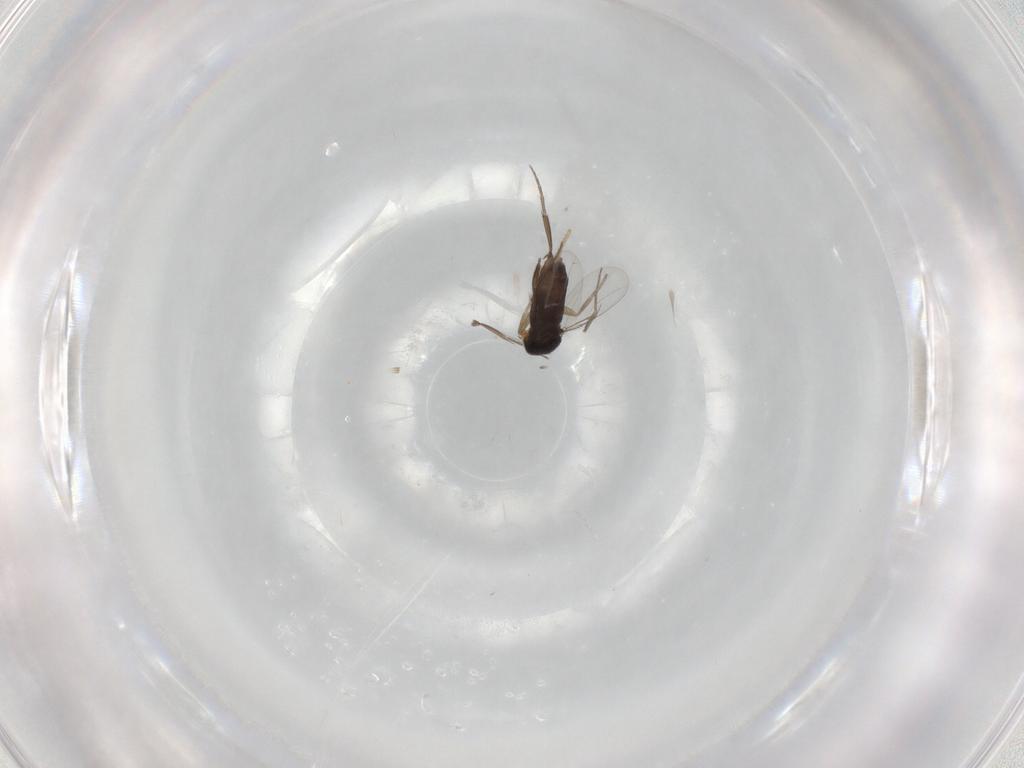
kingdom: Animalia
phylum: Arthropoda
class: Insecta
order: Diptera
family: Phoridae
